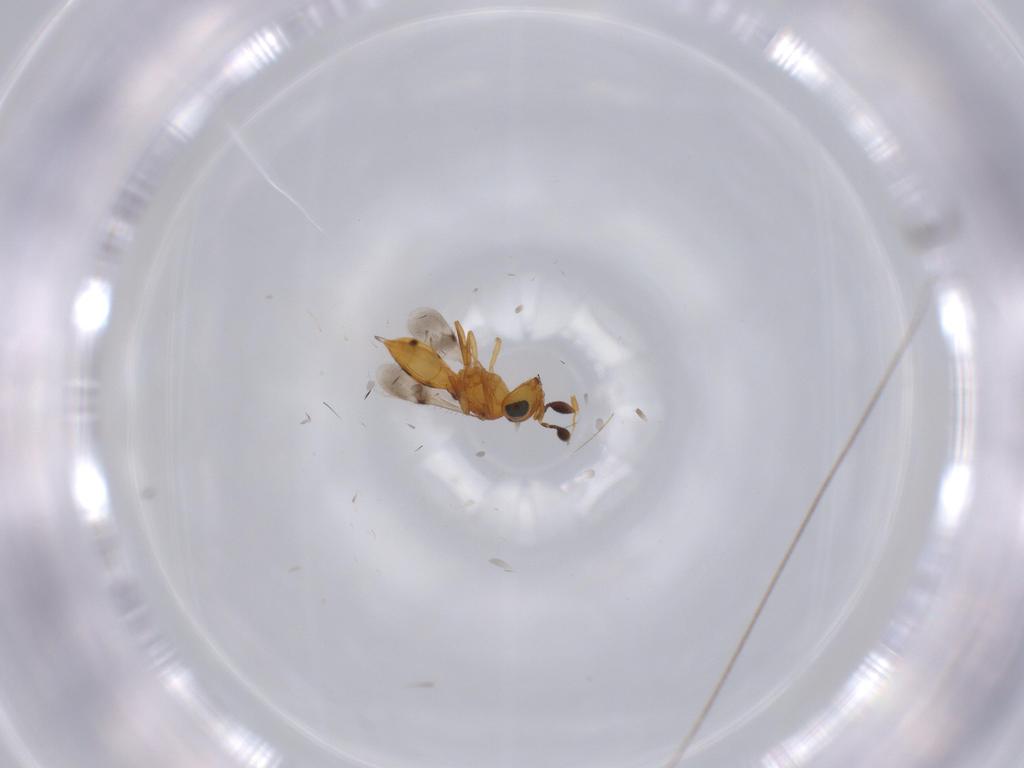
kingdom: Animalia
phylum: Arthropoda
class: Insecta
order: Hymenoptera
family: Scelionidae
